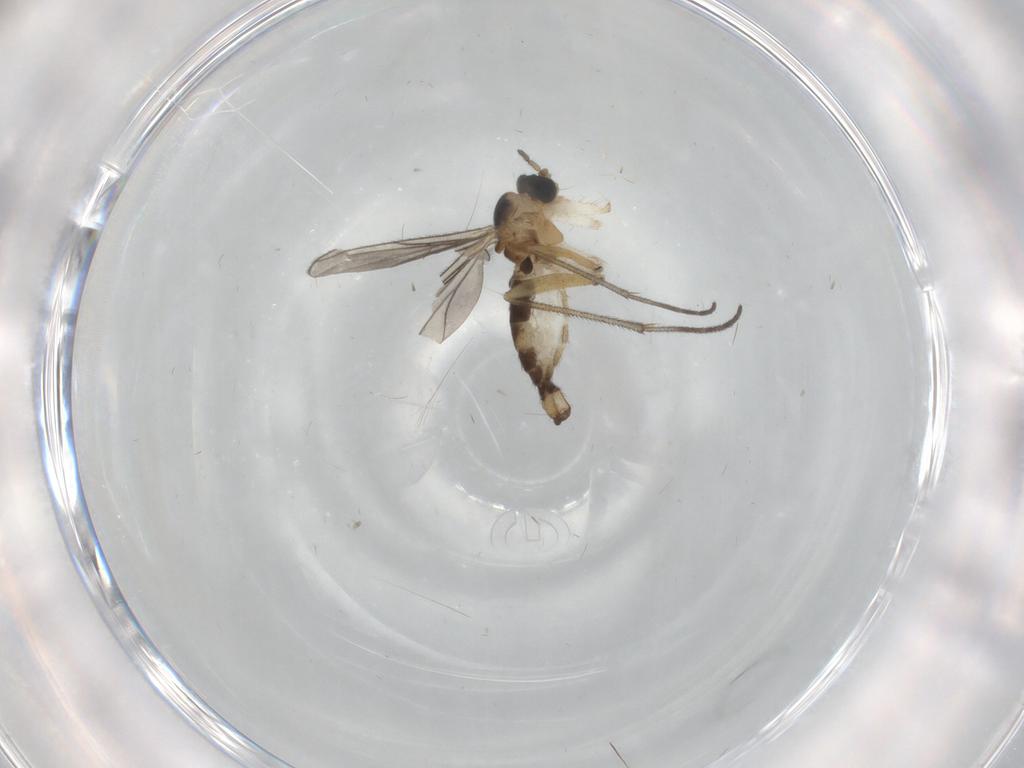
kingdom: Animalia
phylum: Arthropoda
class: Insecta
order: Diptera
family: Sciaridae
